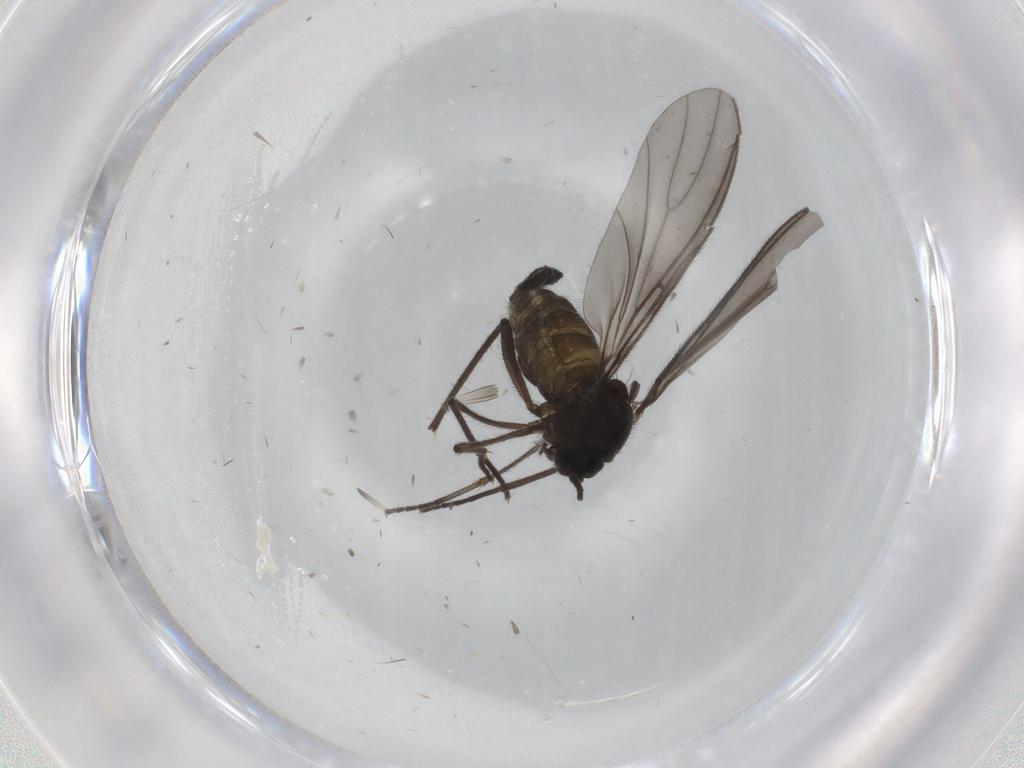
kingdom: Animalia
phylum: Arthropoda
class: Insecta
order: Diptera
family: Sciaridae
